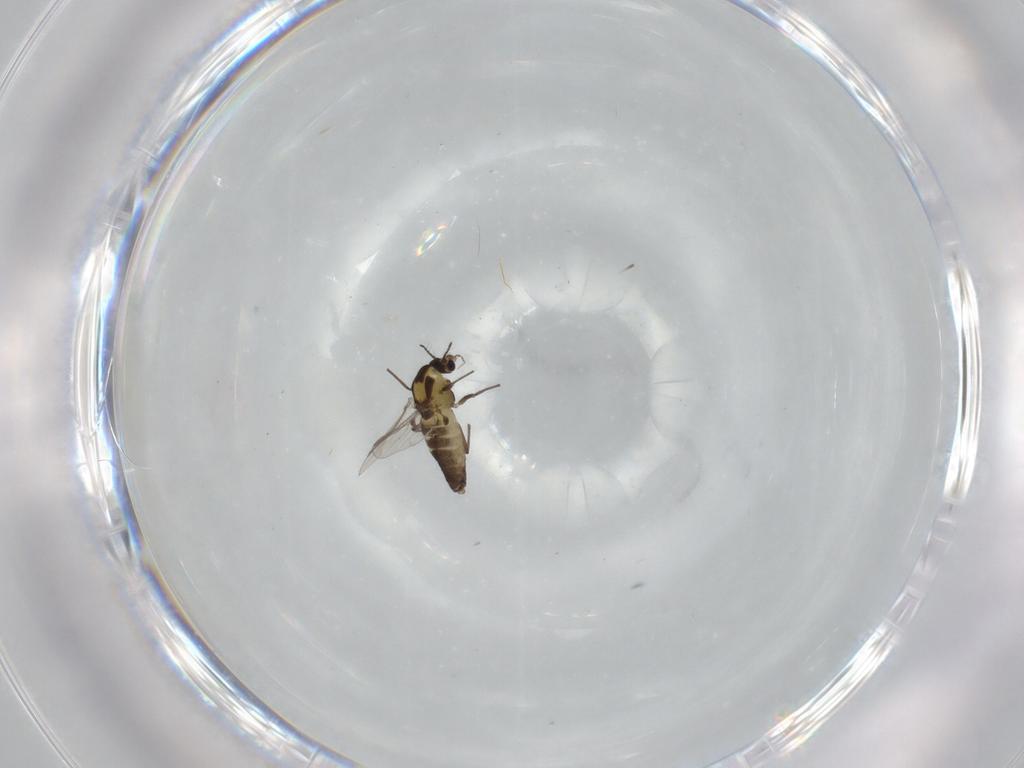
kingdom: Animalia
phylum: Arthropoda
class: Insecta
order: Diptera
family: Chironomidae
